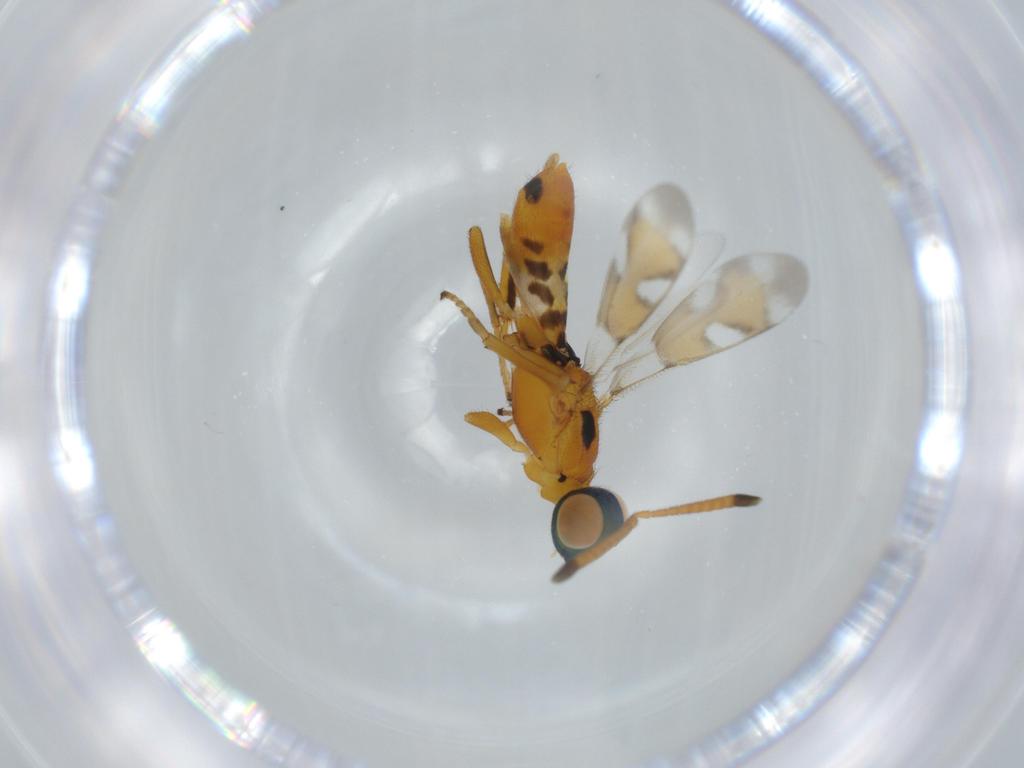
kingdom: Animalia
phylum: Arthropoda
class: Insecta
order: Hymenoptera
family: Eupelmidae
